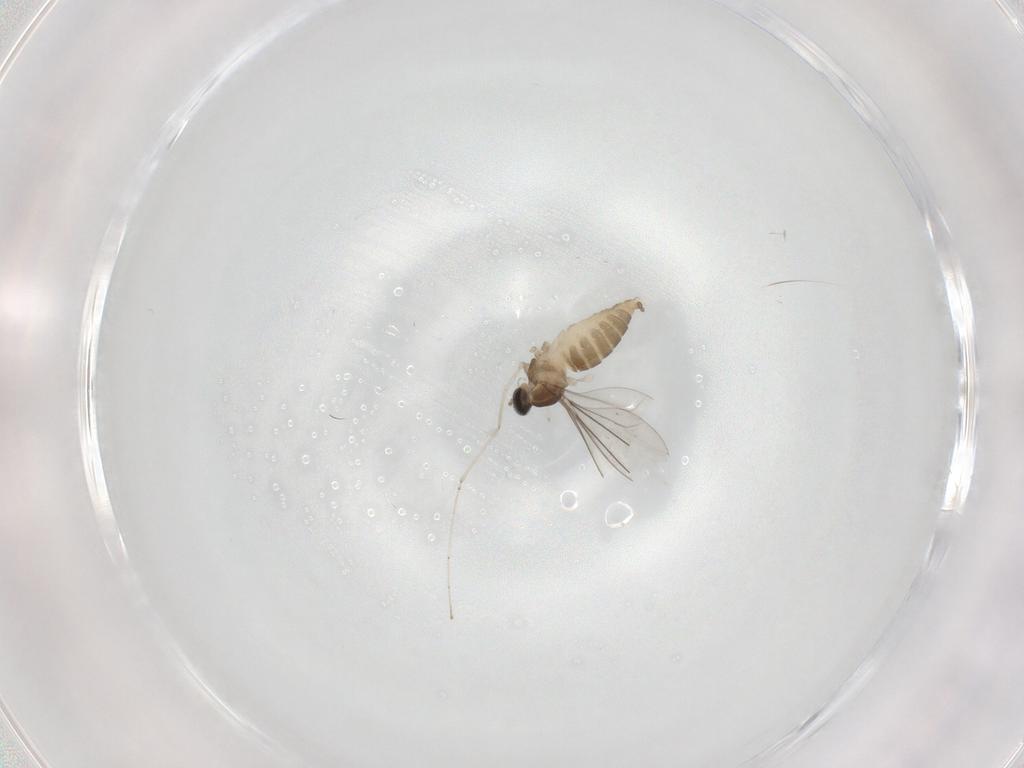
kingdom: Animalia
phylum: Arthropoda
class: Insecta
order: Diptera
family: Cecidomyiidae
